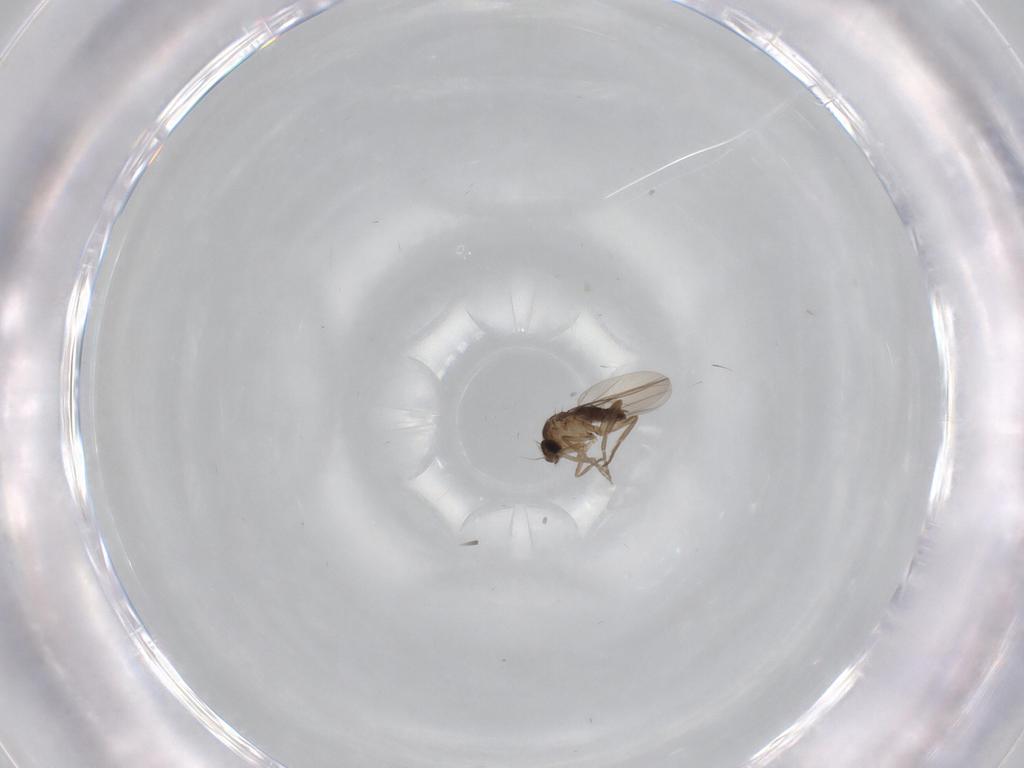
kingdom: Animalia
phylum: Arthropoda
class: Insecta
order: Diptera
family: Phoridae
